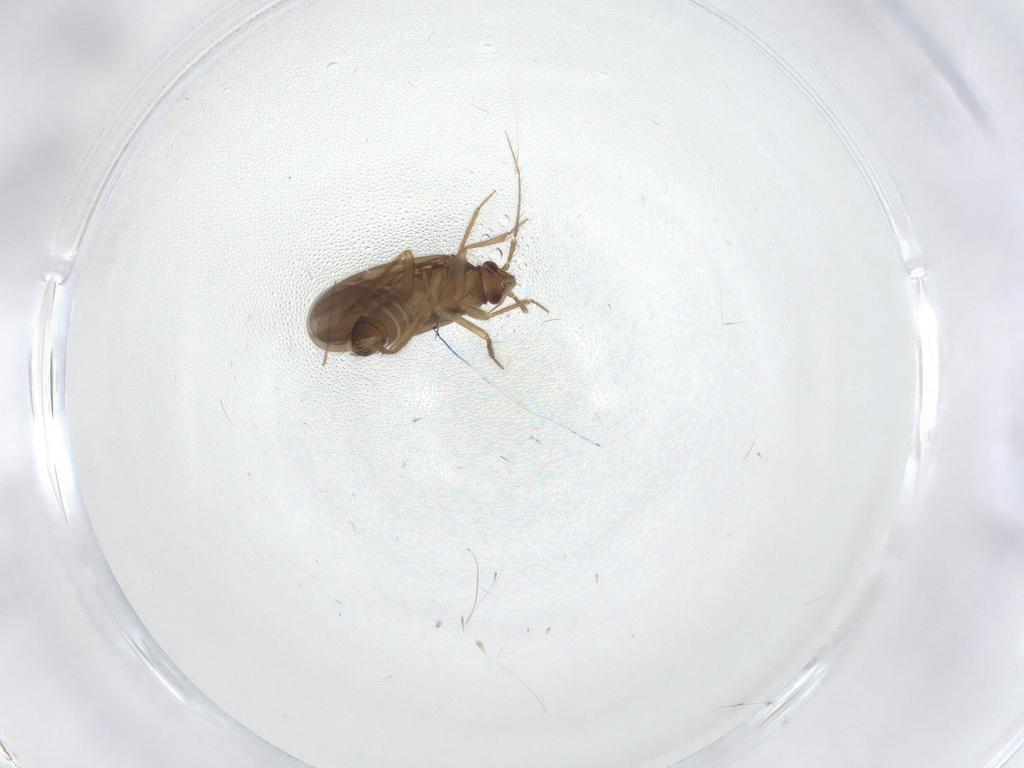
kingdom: Animalia
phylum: Arthropoda
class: Insecta
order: Hemiptera
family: Ceratocombidae
